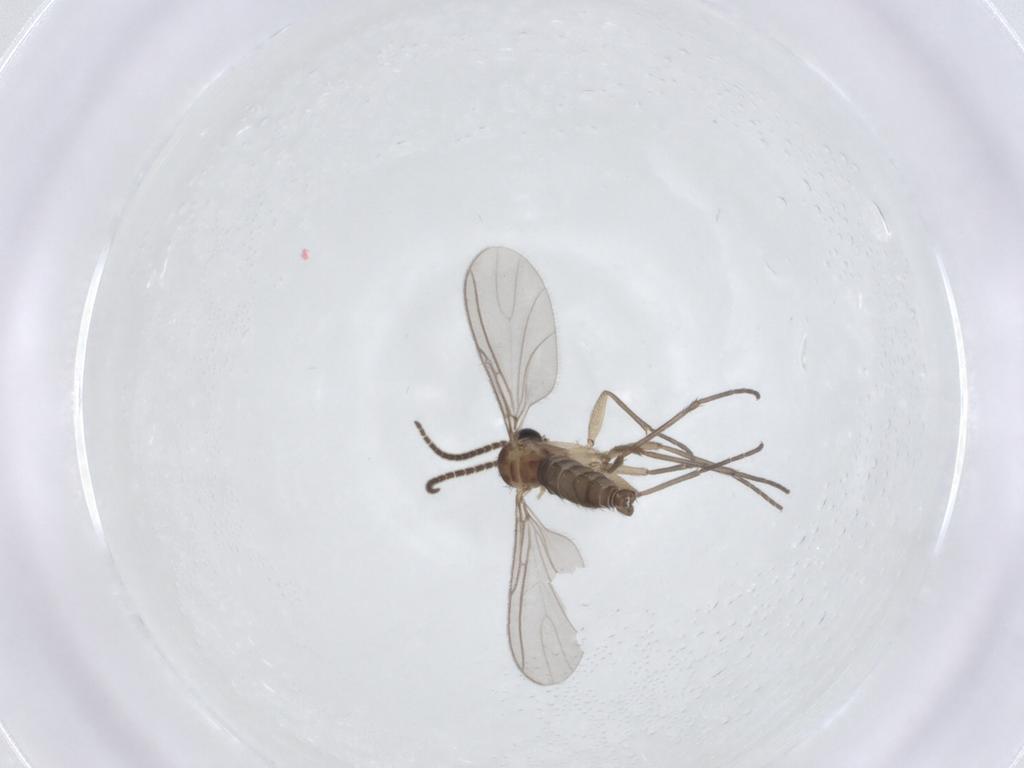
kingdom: Animalia
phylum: Arthropoda
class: Insecta
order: Diptera
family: Sciaridae
